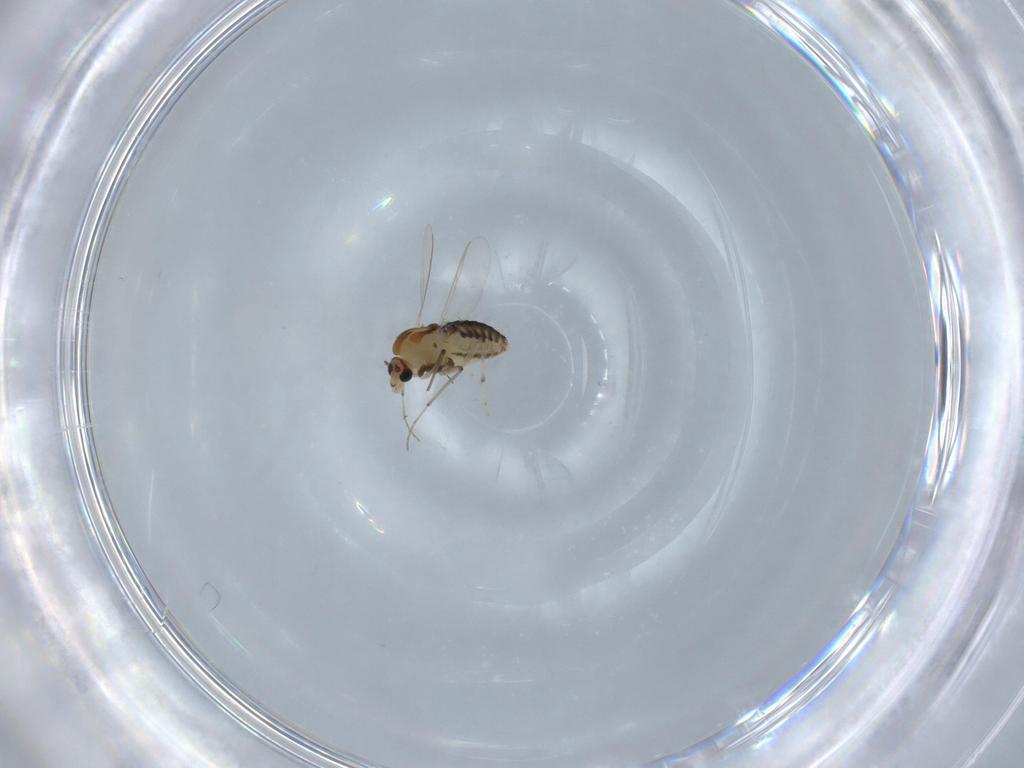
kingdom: Animalia
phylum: Arthropoda
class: Insecta
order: Diptera
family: Chironomidae
